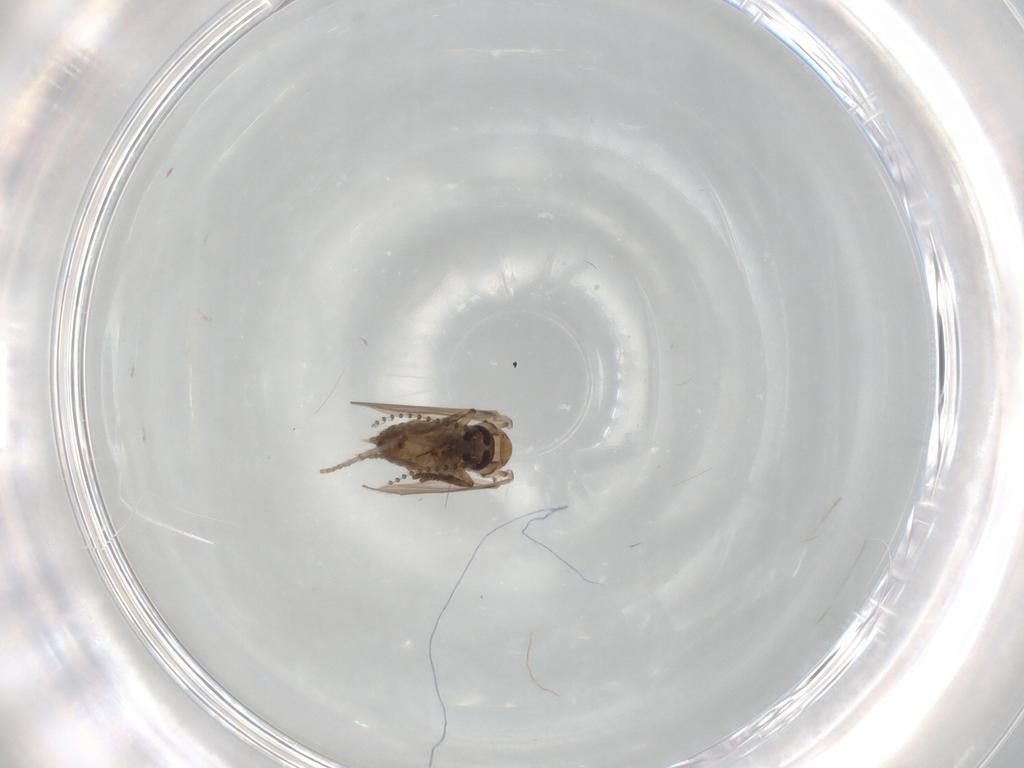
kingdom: Animalia
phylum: Arthropoda
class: Insecta
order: Diptera
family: Psychodidae
